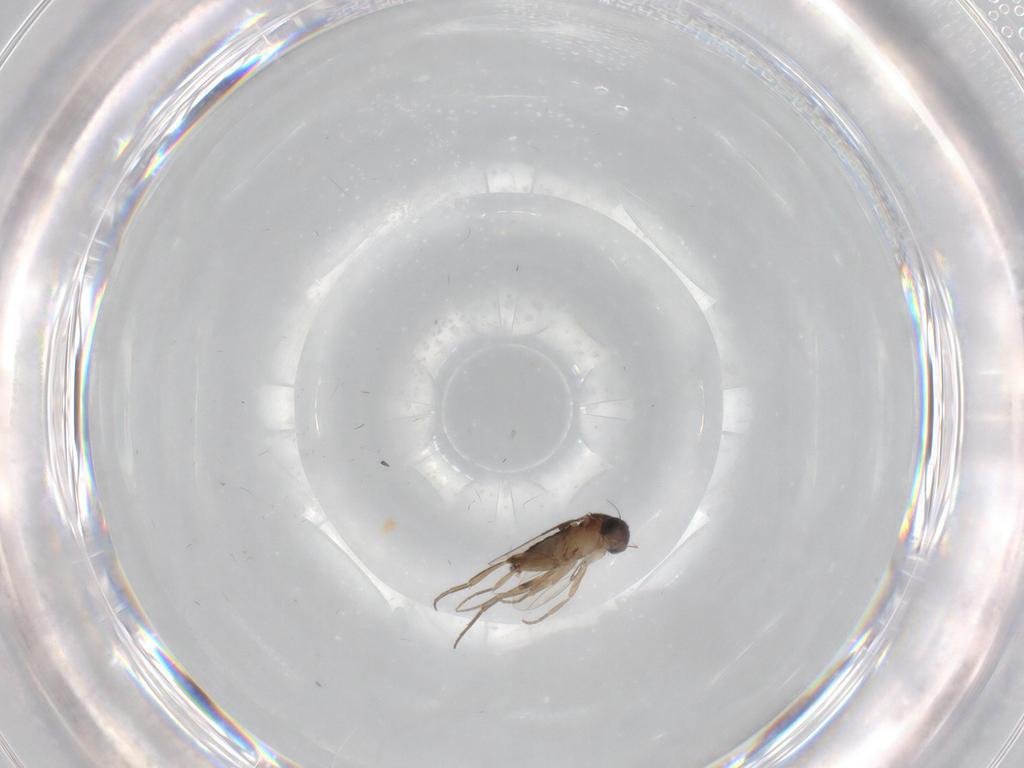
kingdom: Animalia
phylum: Arthropoda
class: Insecta
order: Diptera
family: Cecidomyiidae
